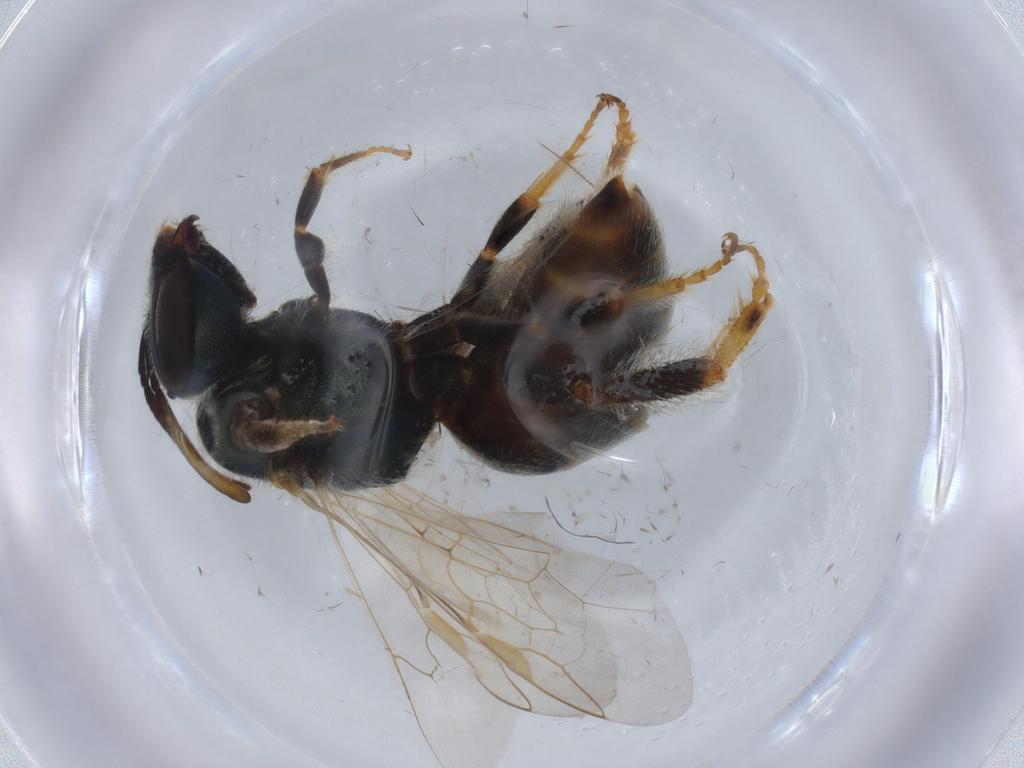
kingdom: Animalia
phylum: Arthropoda
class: Insecta
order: Hymenoptera
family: Halictidae
